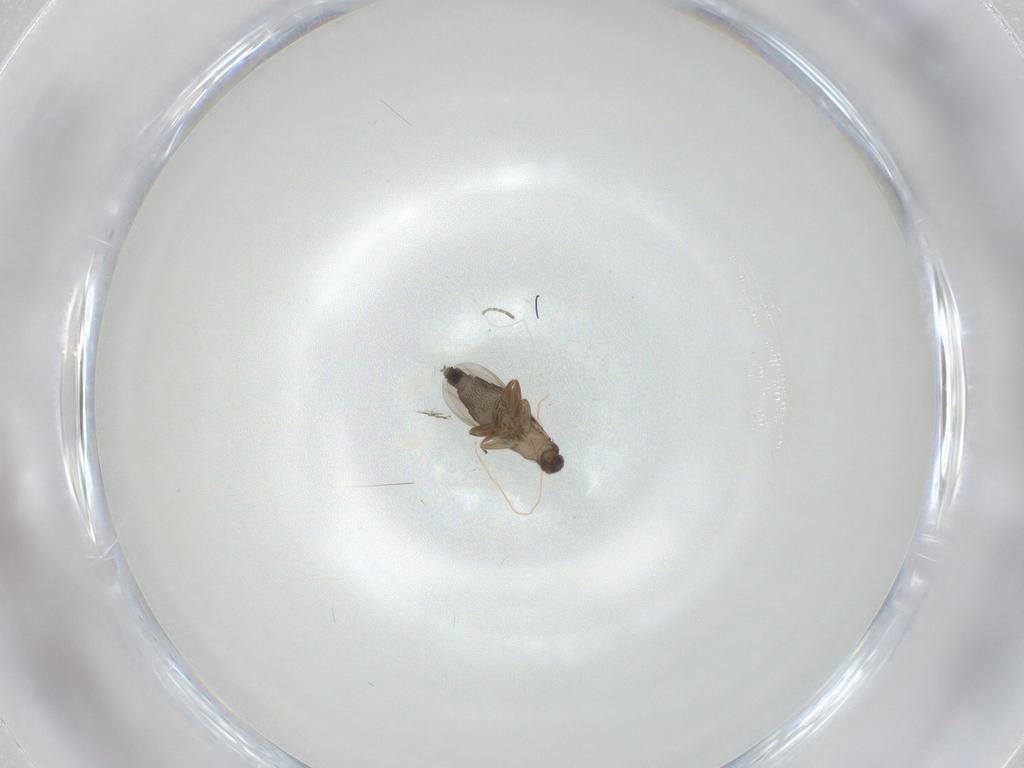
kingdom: Animalia
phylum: Arthropoda
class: Insecta
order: Diptera
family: Phoridae
